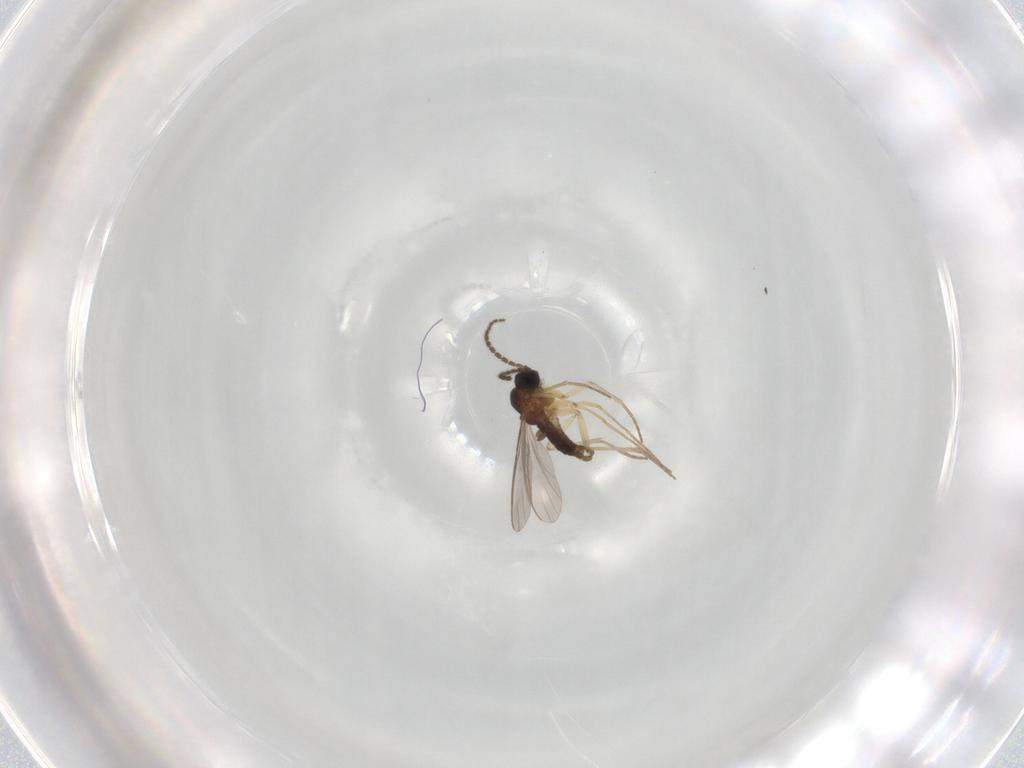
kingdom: Animalia
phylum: Arthropoda
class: Insecta
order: Diptera
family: Sciaridae
